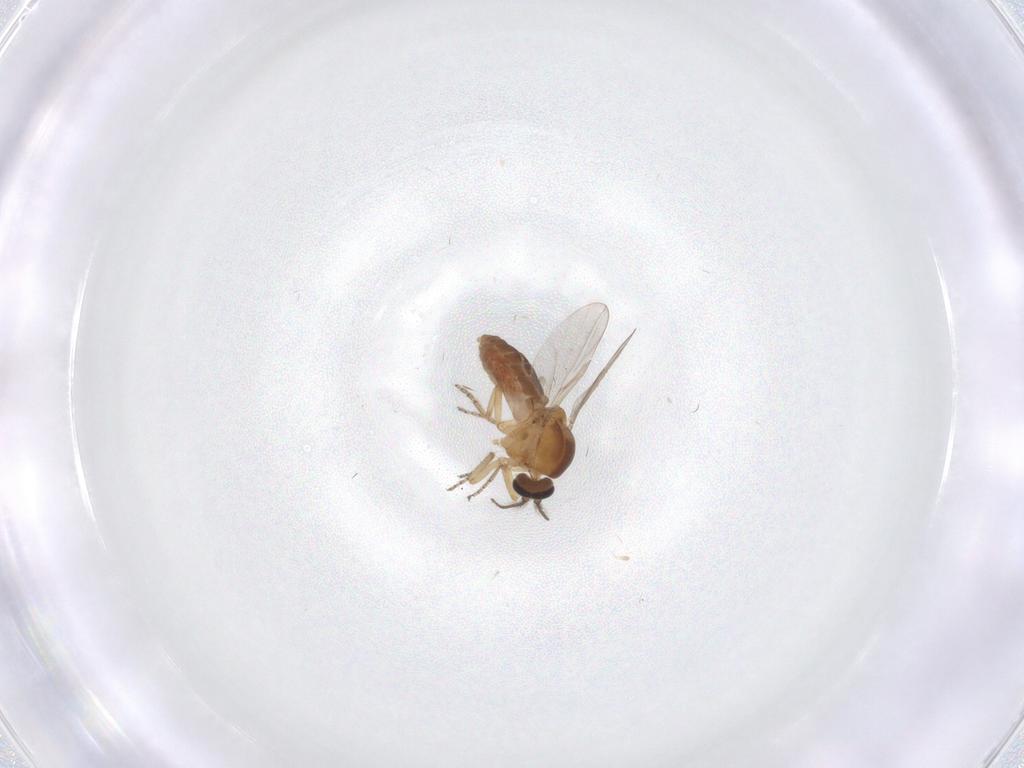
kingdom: Animalia
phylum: Arthropoda
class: Insecta
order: Diptera
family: Ceratopogonidae
